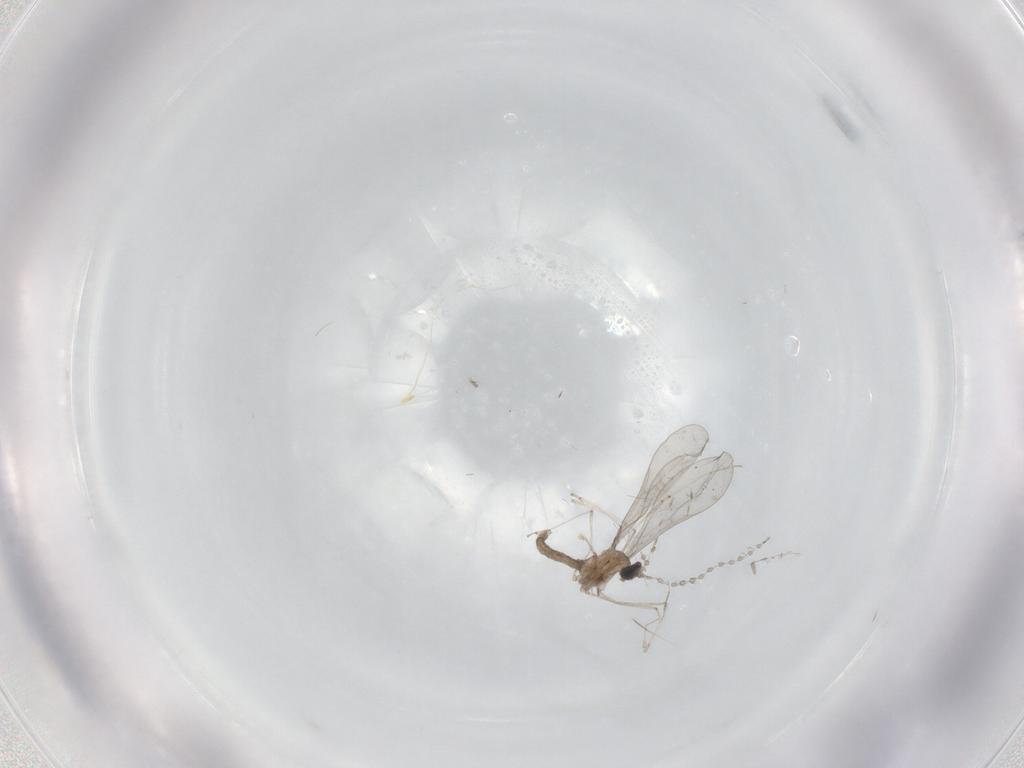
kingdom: Animalia
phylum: Arthropoda
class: Insecta
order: Diptera
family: Cecidomyiidae
